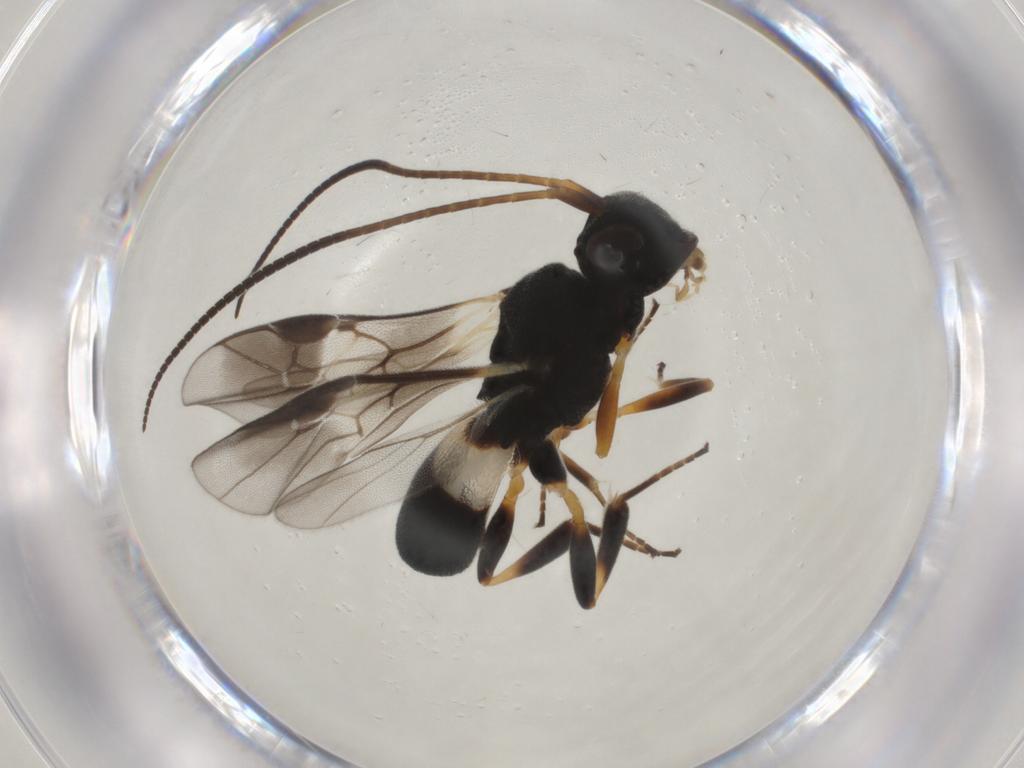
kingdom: Animalia
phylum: Arthropoda
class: Insecta
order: Hymenoptera
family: Braconidae
